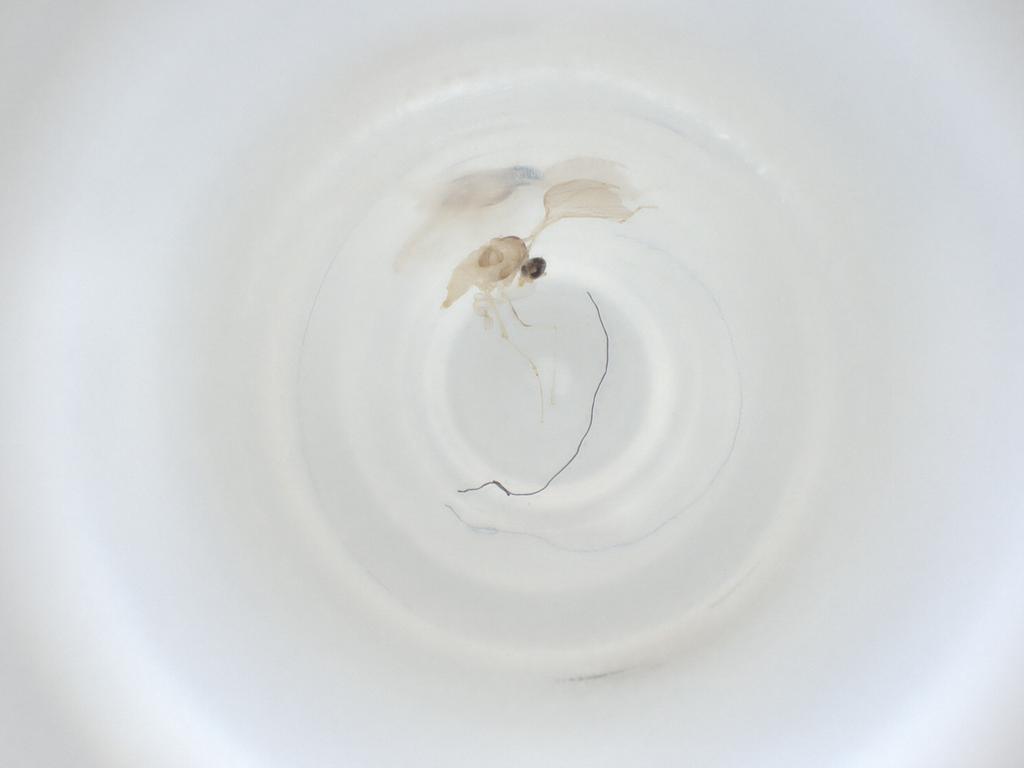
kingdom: Animalia
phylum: Arthropoda
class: Insecta
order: Diptera
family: Cecidomyiidae
